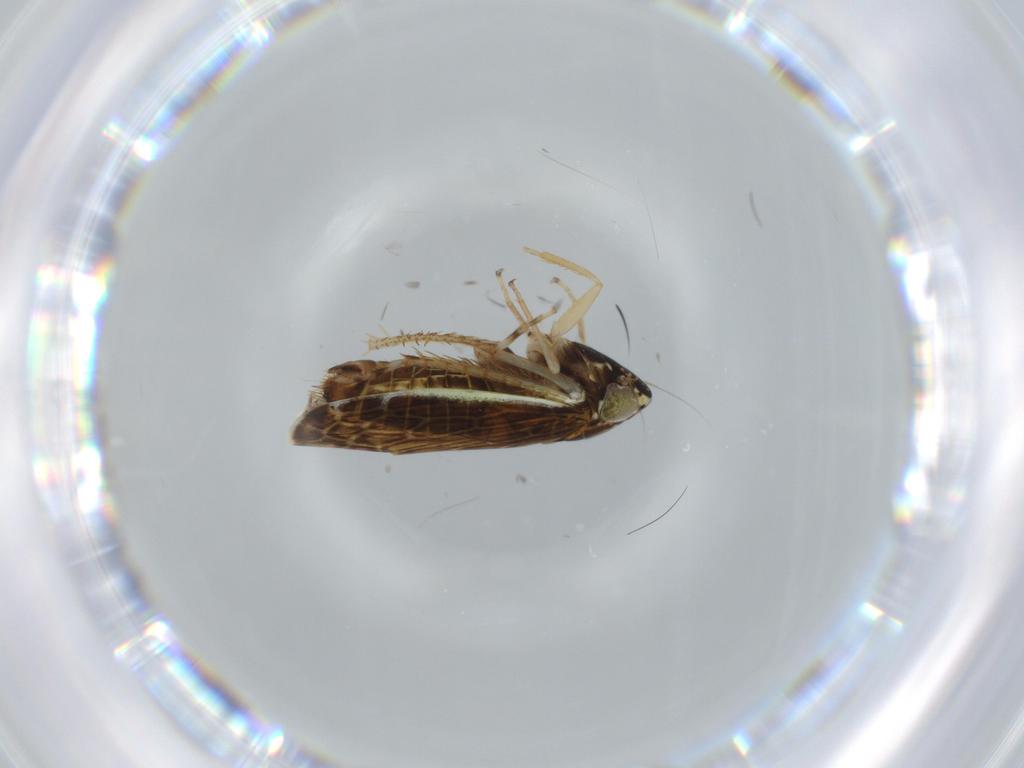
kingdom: Animalia
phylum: Arthropoda
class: Insecta
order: Hemiptera
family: Cicadellidae
